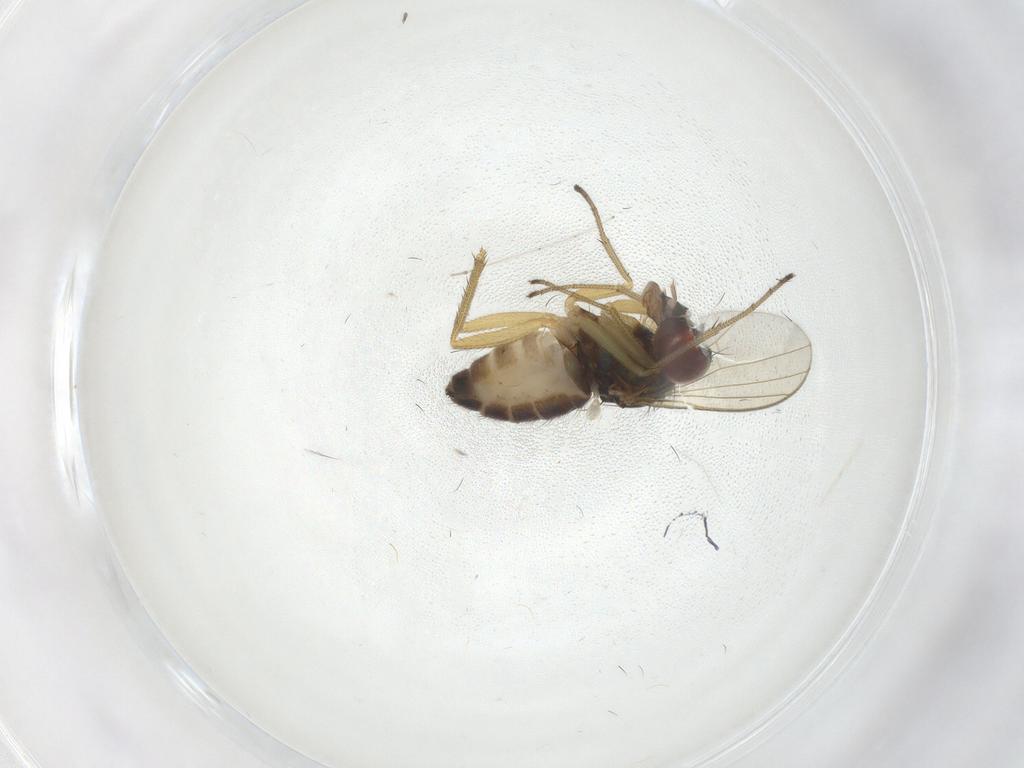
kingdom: Animalia
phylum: Arthropoda
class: Insecta
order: Diptera
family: Dolichopodidae
